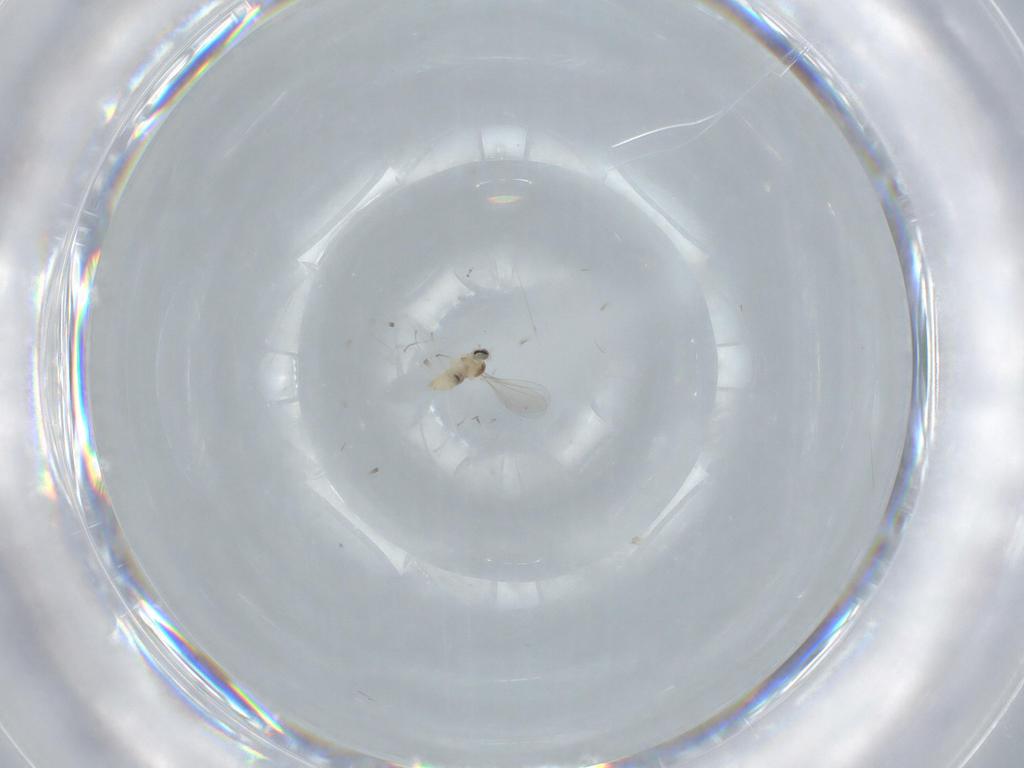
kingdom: Animalia
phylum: Arthropoda
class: Insecta
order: Diptera
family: Cecidomyiidae
